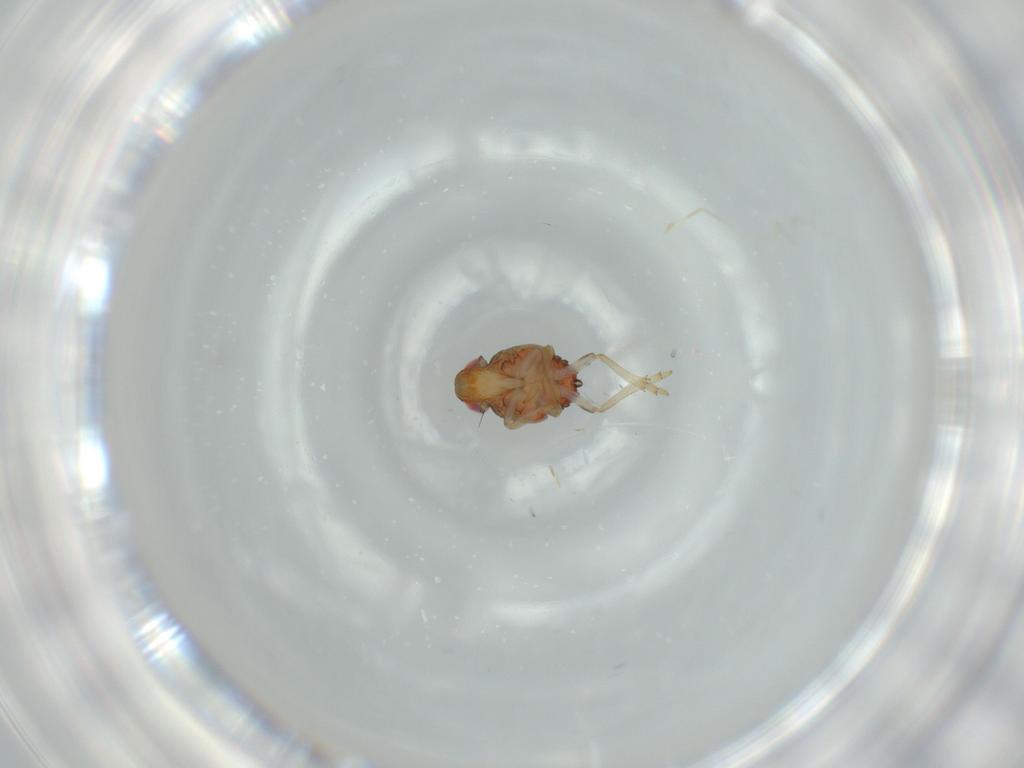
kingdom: Animalia
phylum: Arthropoda
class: Insecta
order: Hemiptera
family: Issidae
